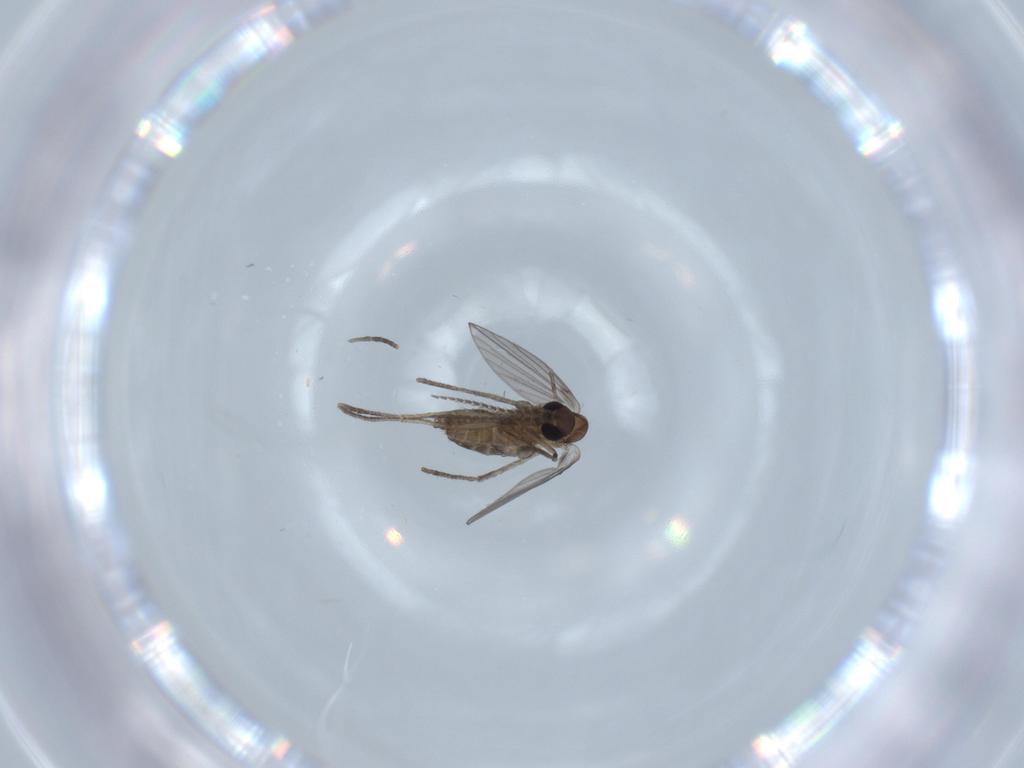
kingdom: Animalia
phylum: Arthropoda
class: Insecta
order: Diptera
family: Psychodidae
